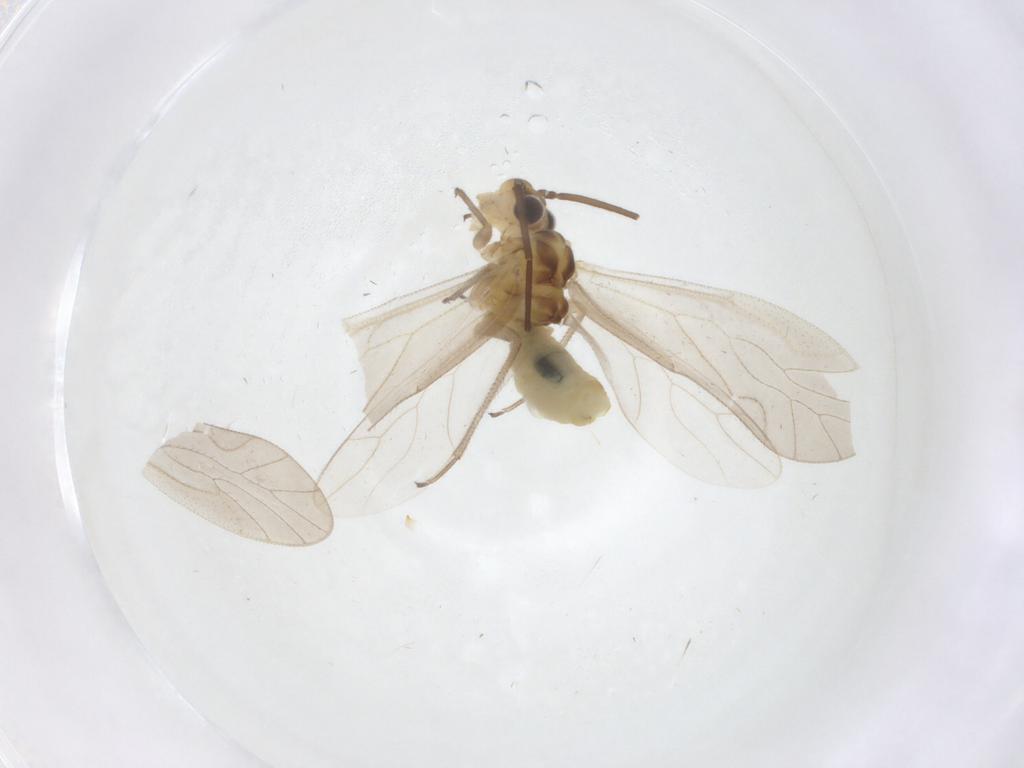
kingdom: Animalia
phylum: Arthropoda
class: Insecta
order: Psocodea
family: Caeciliusidae
